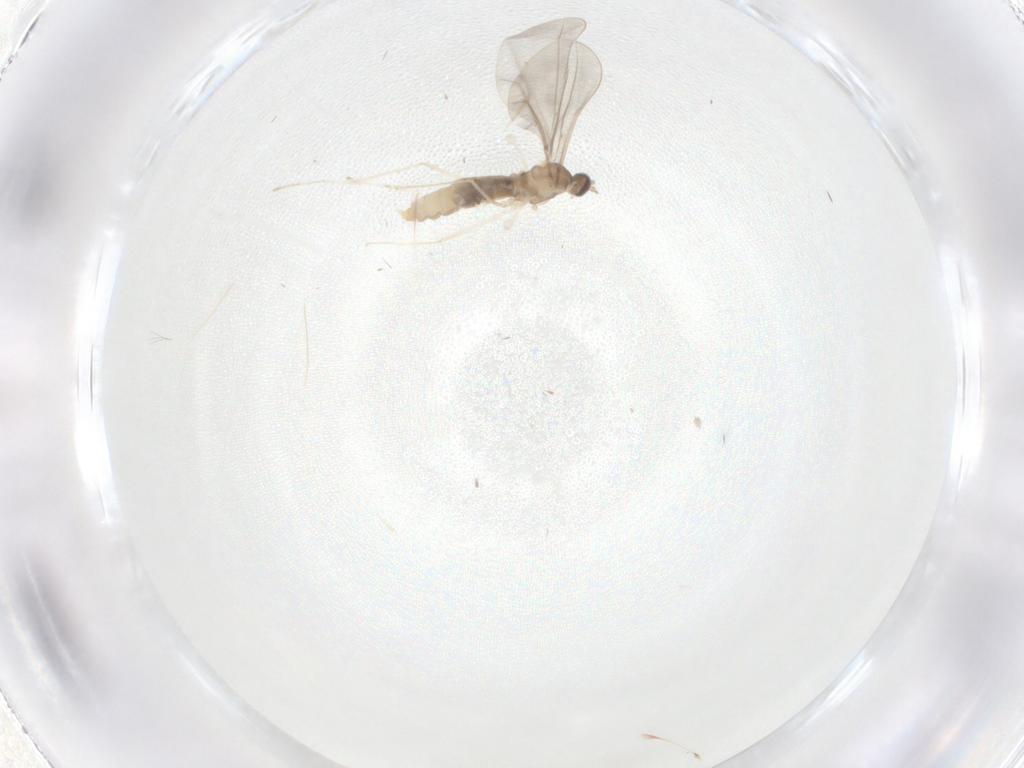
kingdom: Animalia
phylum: Arthropoda
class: Insecta
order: Diptera
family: Cecidomyiidae
